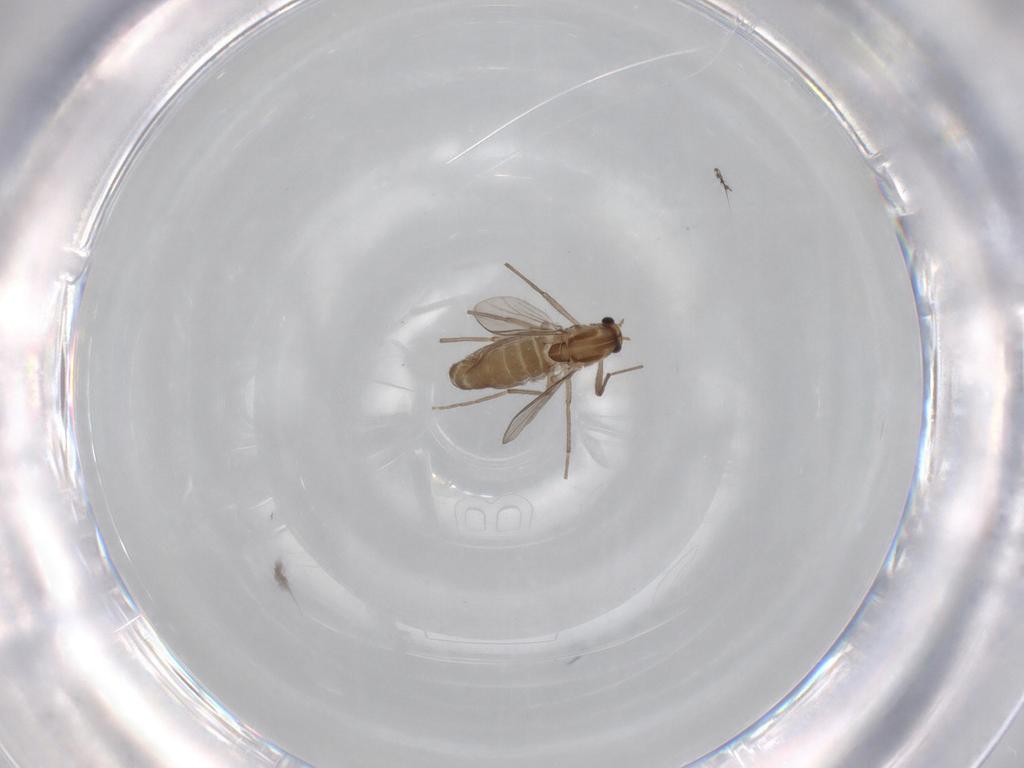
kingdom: Animalia
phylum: Arthropoda
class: Insecta
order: Diptera
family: Chironomidae
